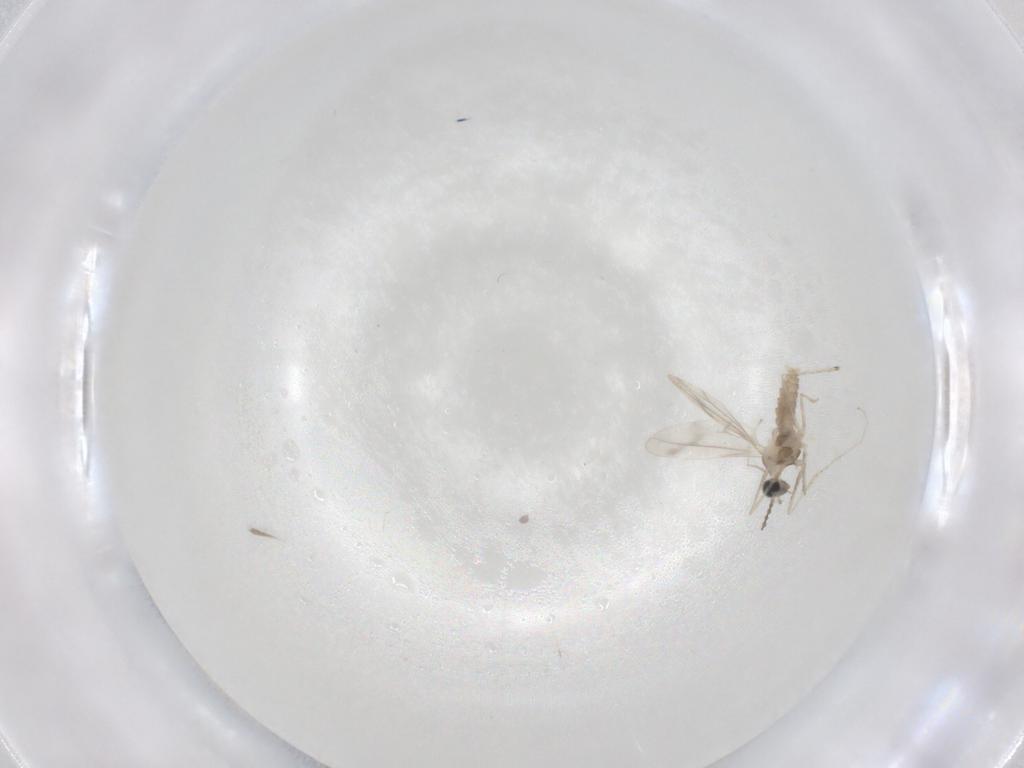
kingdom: Animalia
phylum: Arthropoda
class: Insecta
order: Diptera
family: Cecidomyiidae
